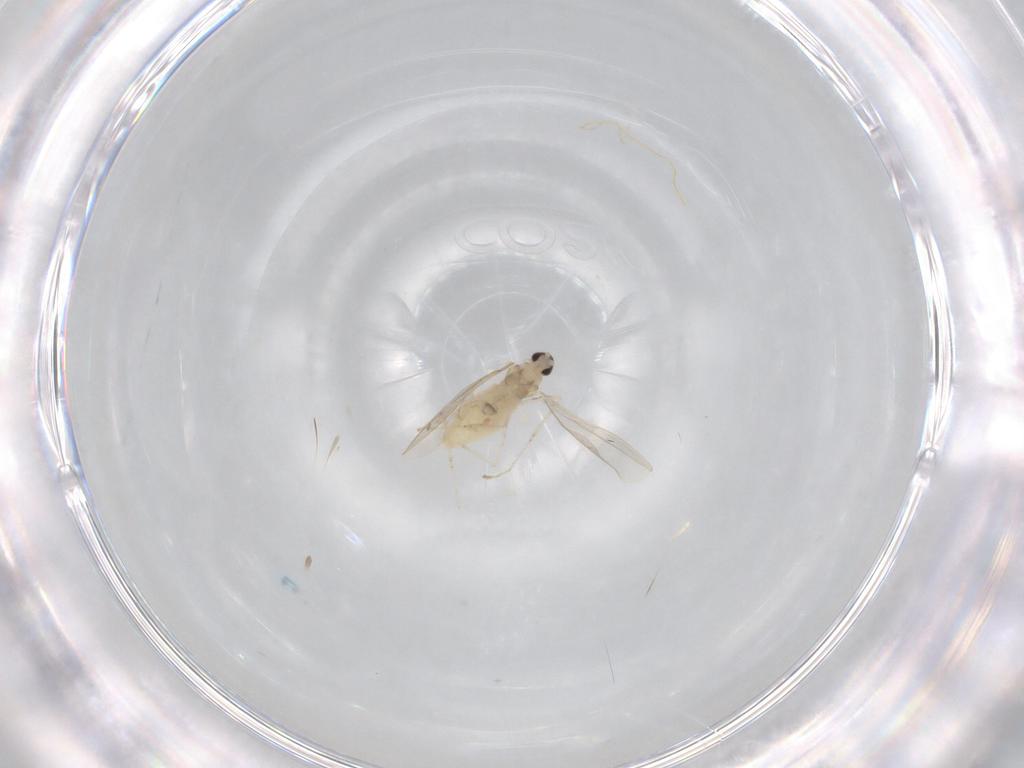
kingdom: Animalia
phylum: Arthropoda
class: Insecta
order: Diptera
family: Cecidomyiidae
